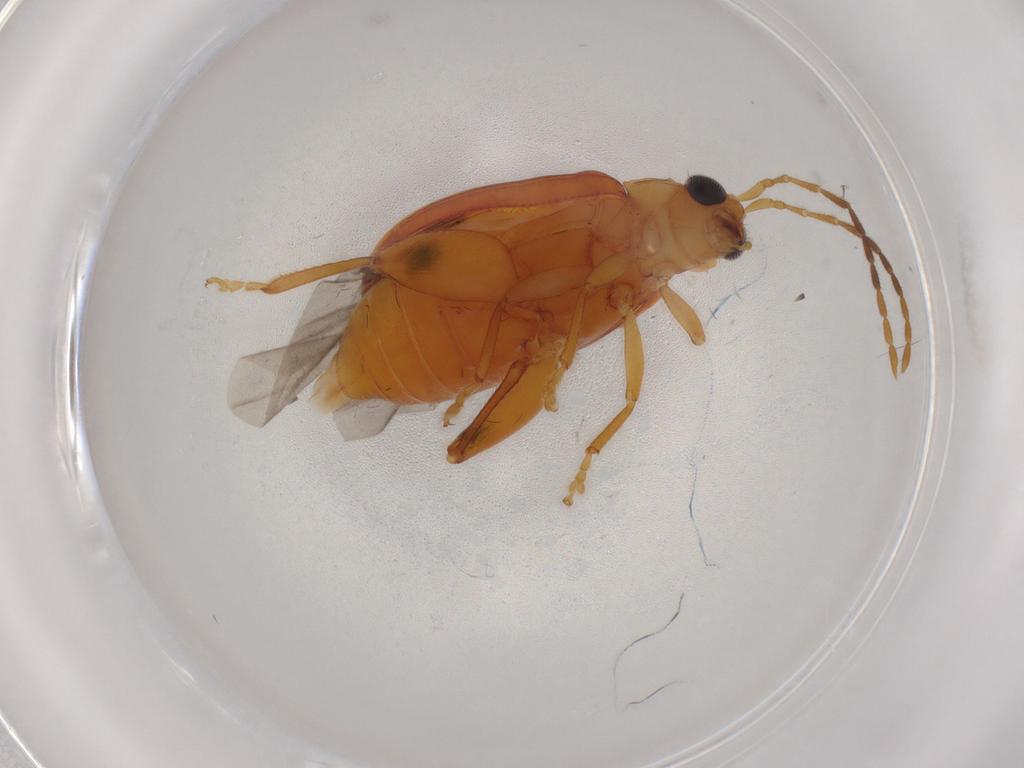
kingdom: Animalia
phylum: Arthropoda
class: Insecta
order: Coleoptera
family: Chrysomelidae
